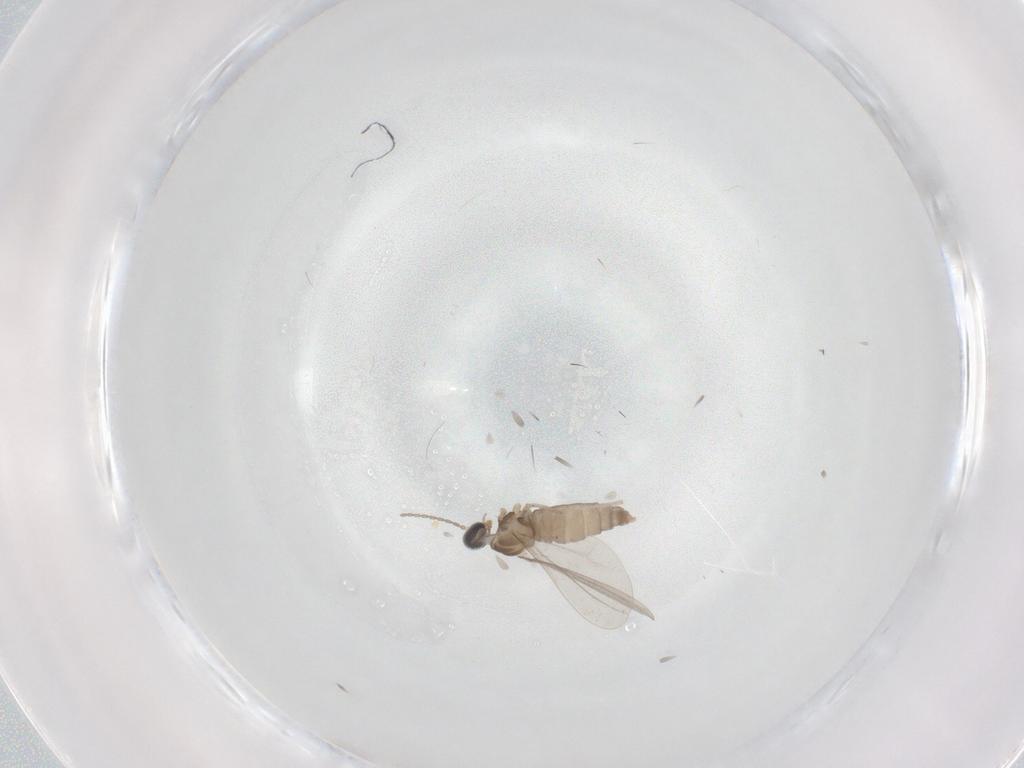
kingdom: Animalia
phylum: Arthropoda
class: Insecta
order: Diptera
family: Cecidomyiidae
